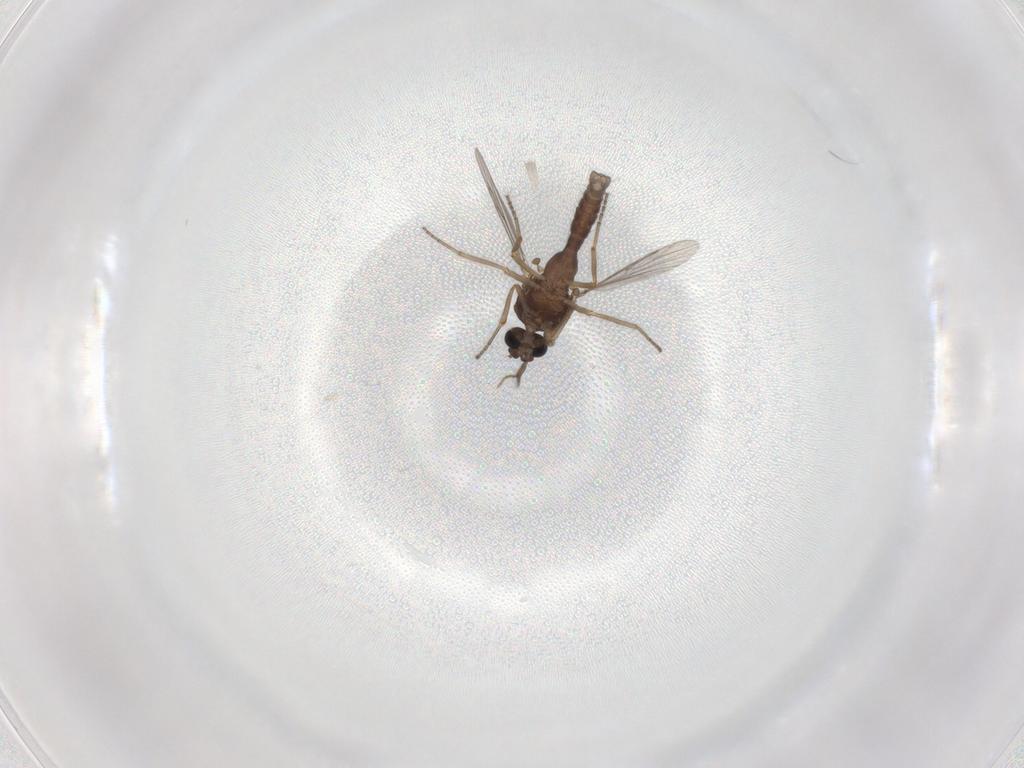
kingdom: Animalia
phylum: Arthropoda
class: Insecta
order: Diptera
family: Ceratopogonidae
